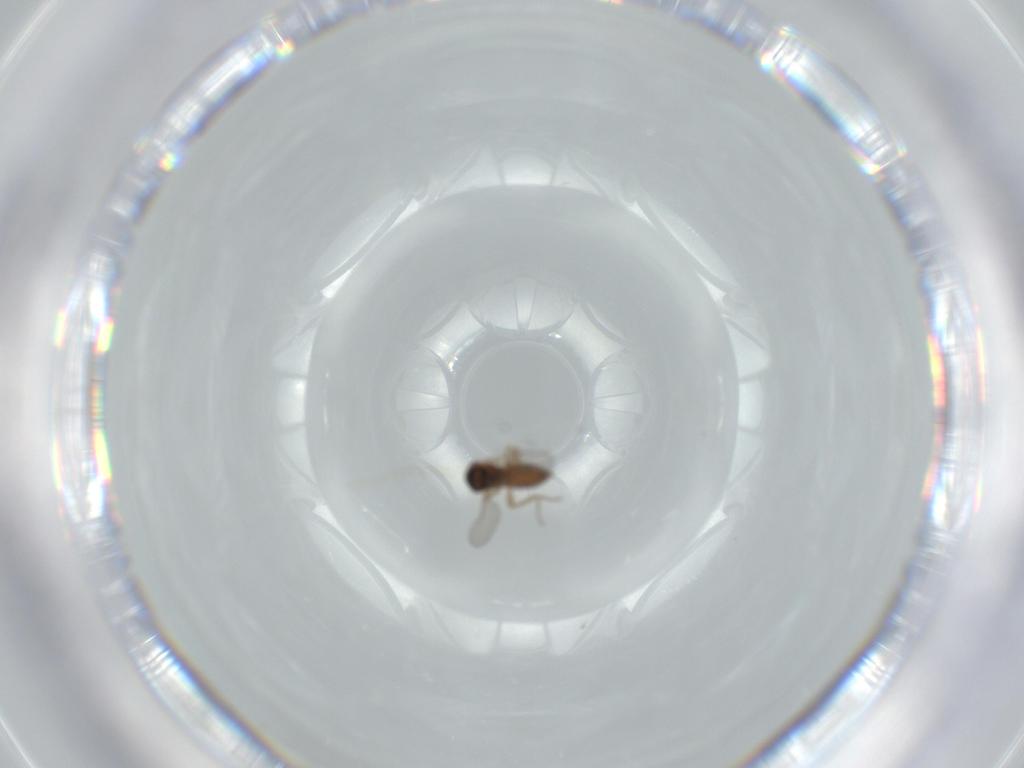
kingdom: Animalia
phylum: Arthropoda
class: Insecta
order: Diptera
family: Ceratopogonidae
